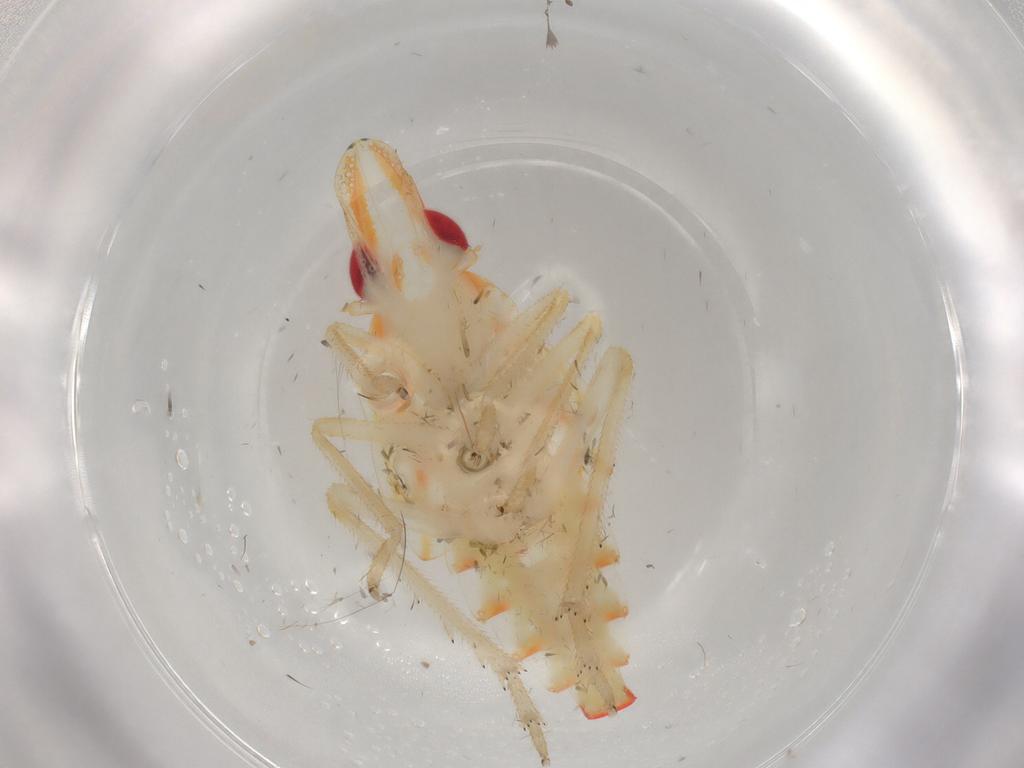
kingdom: Animalia
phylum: Arthropoda
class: Insecta
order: Hemiptera
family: Tropiduchidae
